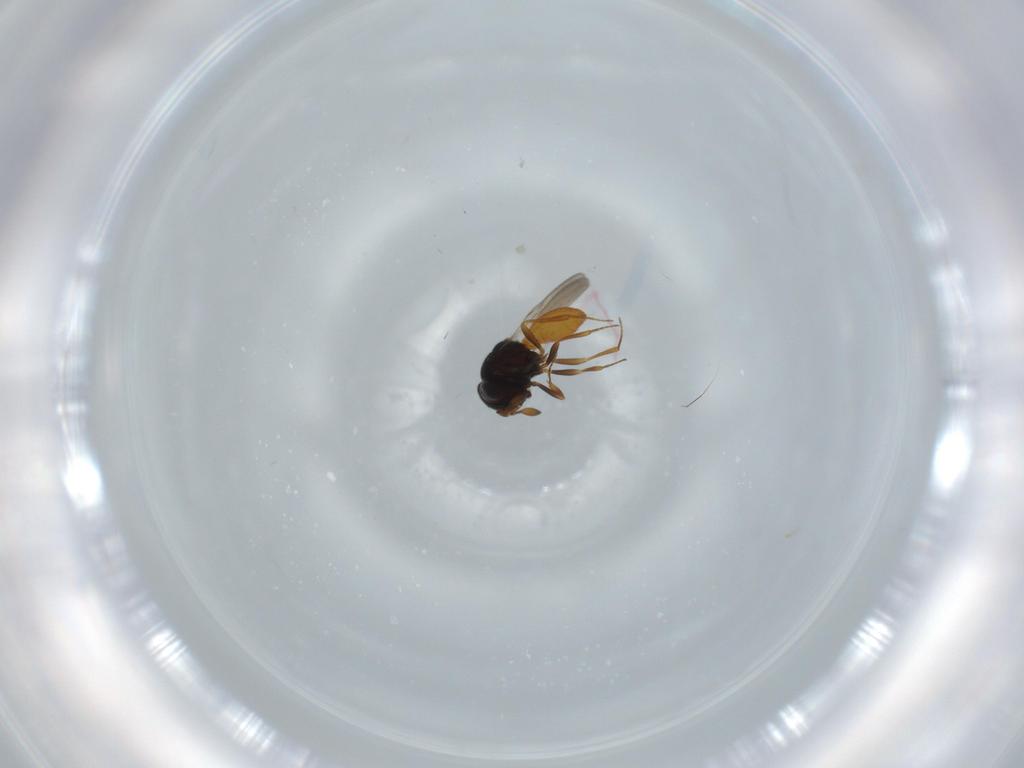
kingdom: Animalia
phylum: Arthropoda
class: Insecta
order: Hymenoptera
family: Scelionidae
